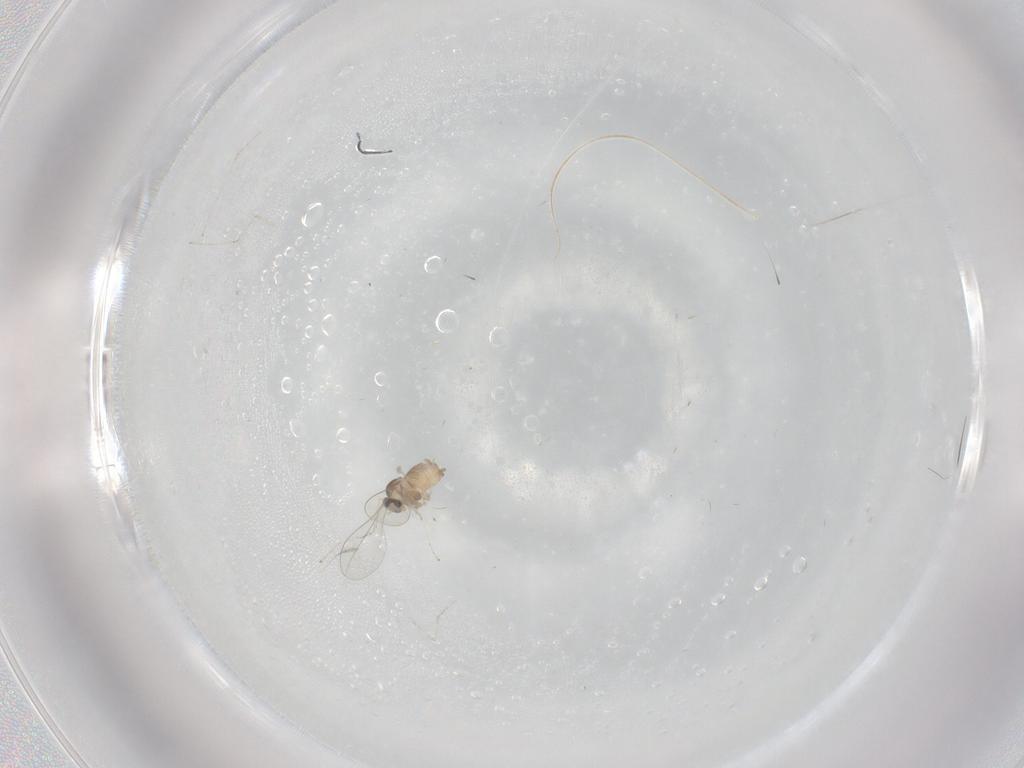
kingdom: Animalia
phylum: Arthropoda
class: Insecta
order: Diptera
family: Cecidomyiidae
